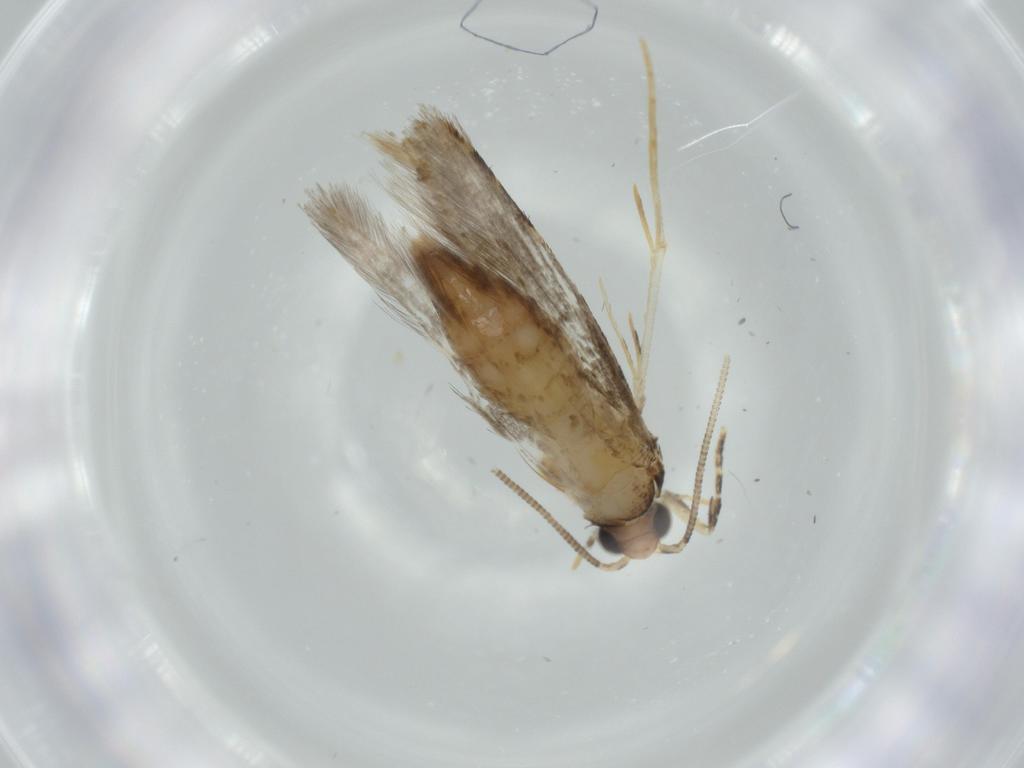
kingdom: Animalia
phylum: Arthropoda
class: Insecta
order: Lepidoptera
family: Tineidae
